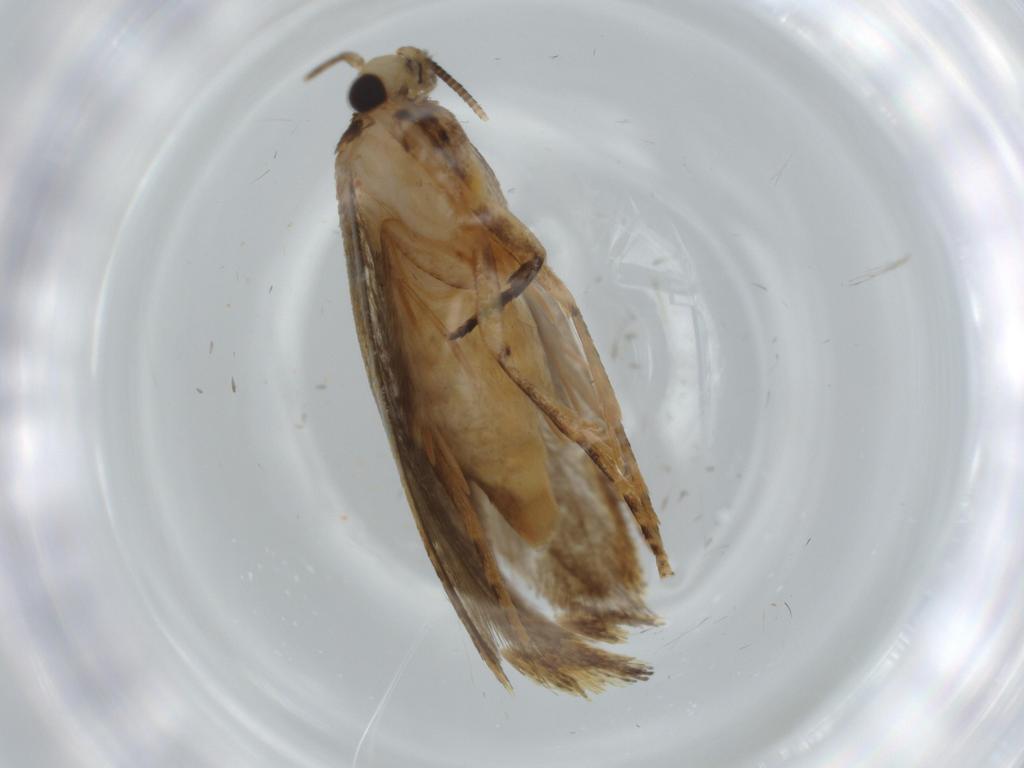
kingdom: Animalia
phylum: Arthropoda
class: Insecta
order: Lepidoptera
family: Tineidae
